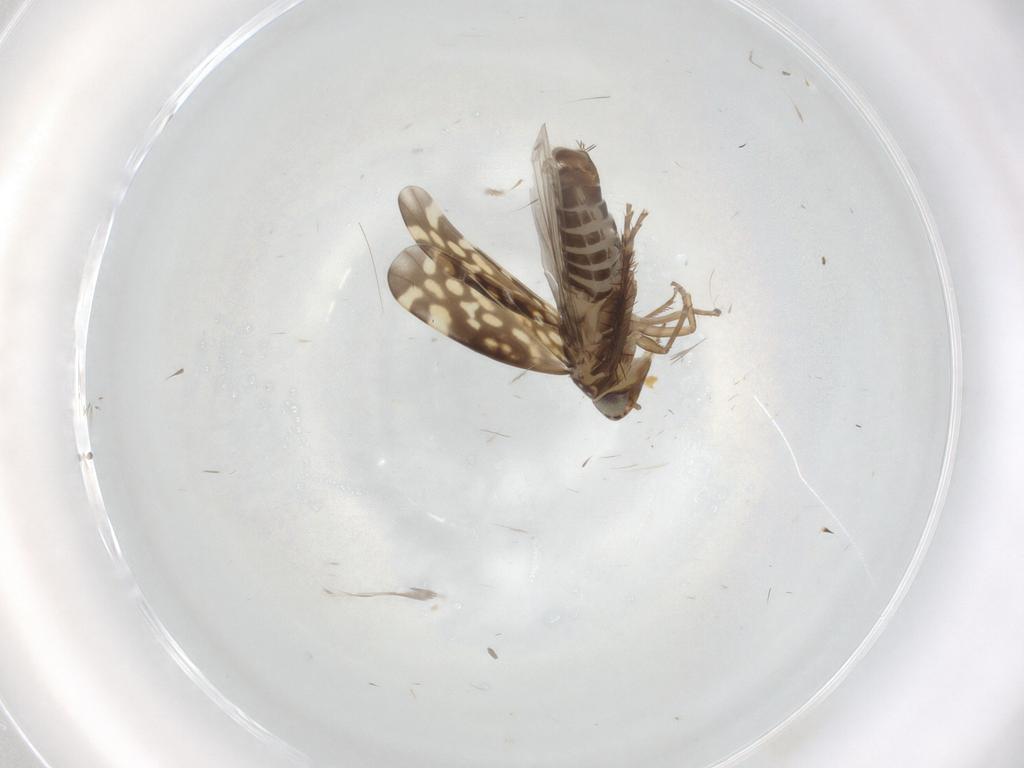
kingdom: Animalia
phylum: Arthropoda
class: Insecta
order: Hemiptera
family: Cicadellidae
